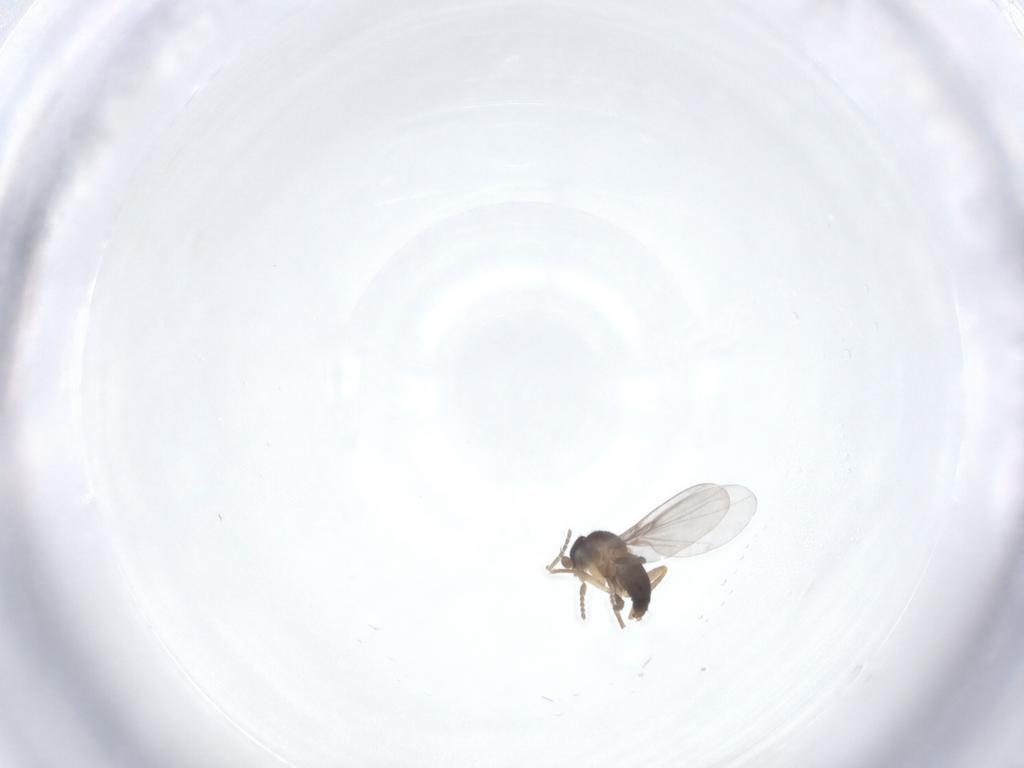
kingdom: Animalia
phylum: Arthropoda
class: Insecta
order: Diptera
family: Phoridae
